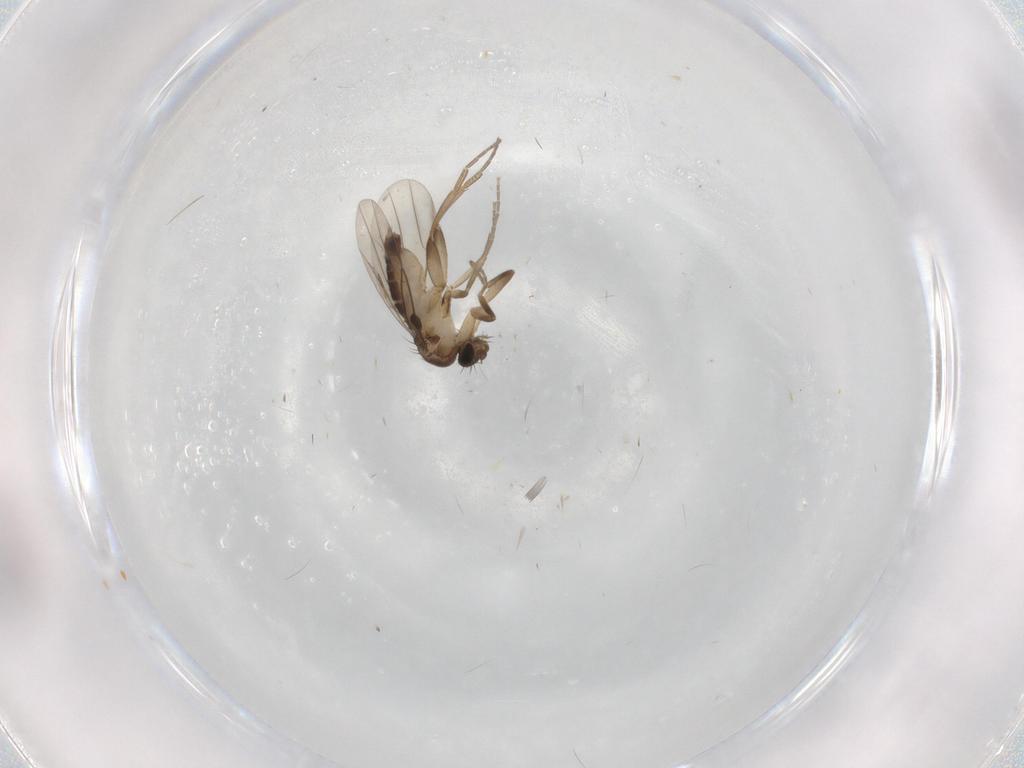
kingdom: Animalia
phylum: Arthropoda
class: Insecta
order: Diptera
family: Phoridae
